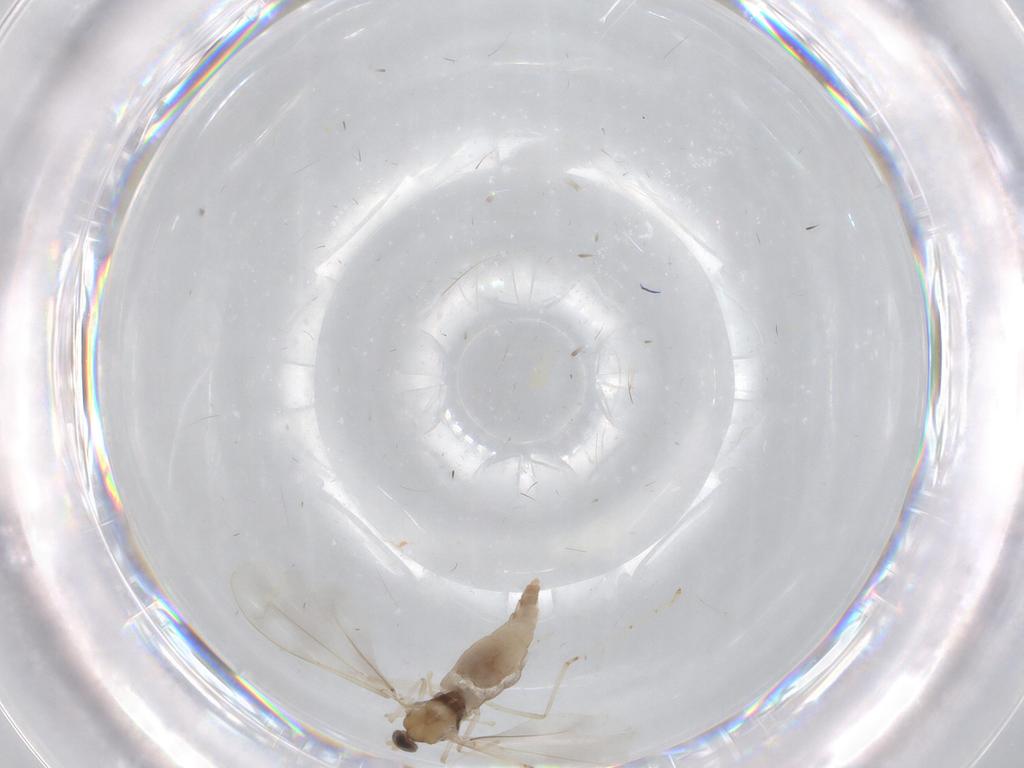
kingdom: Animalia
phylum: Arthropoda
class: Insecta
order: Diptera
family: Cecidomyiidae
